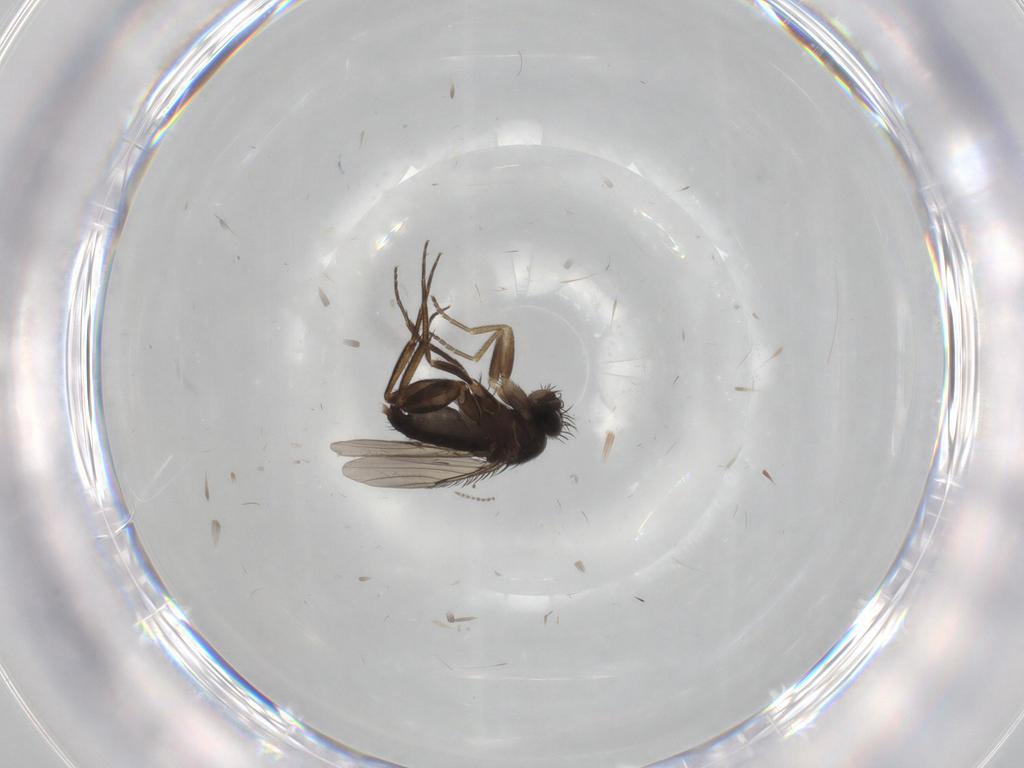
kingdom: Animalia
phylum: Arthropoda
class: Insecta
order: Diptera
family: Phoridae
